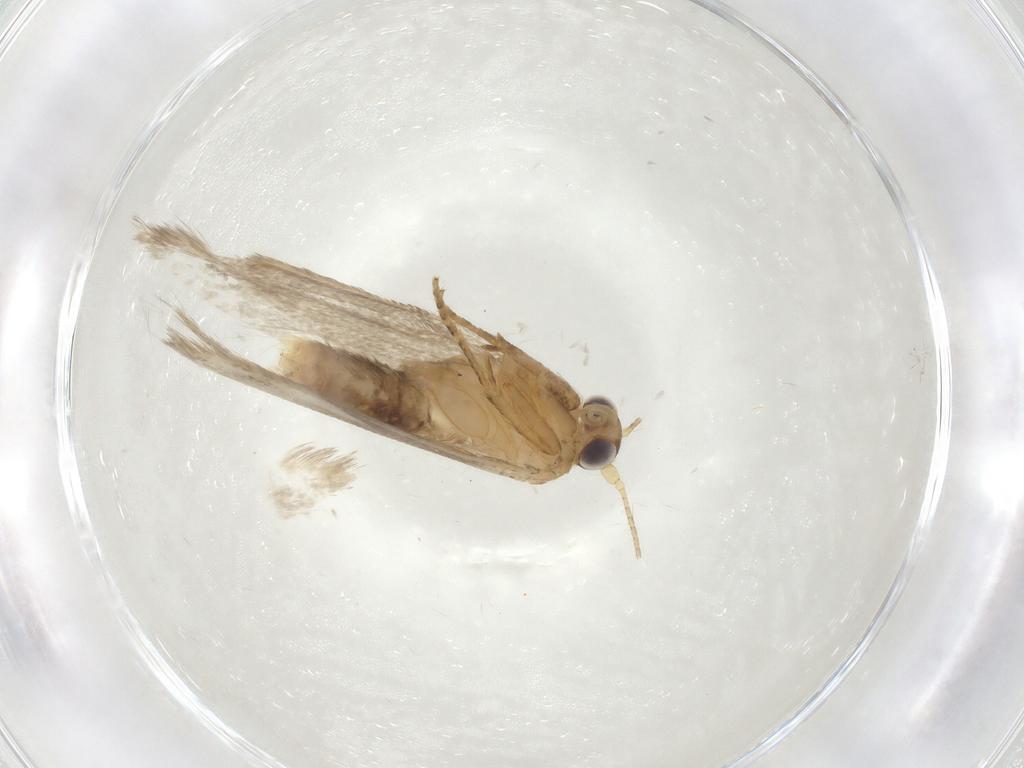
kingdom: Animalia
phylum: Arthropoda
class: Insecta
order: Lepidoptera
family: Coleophoridae
